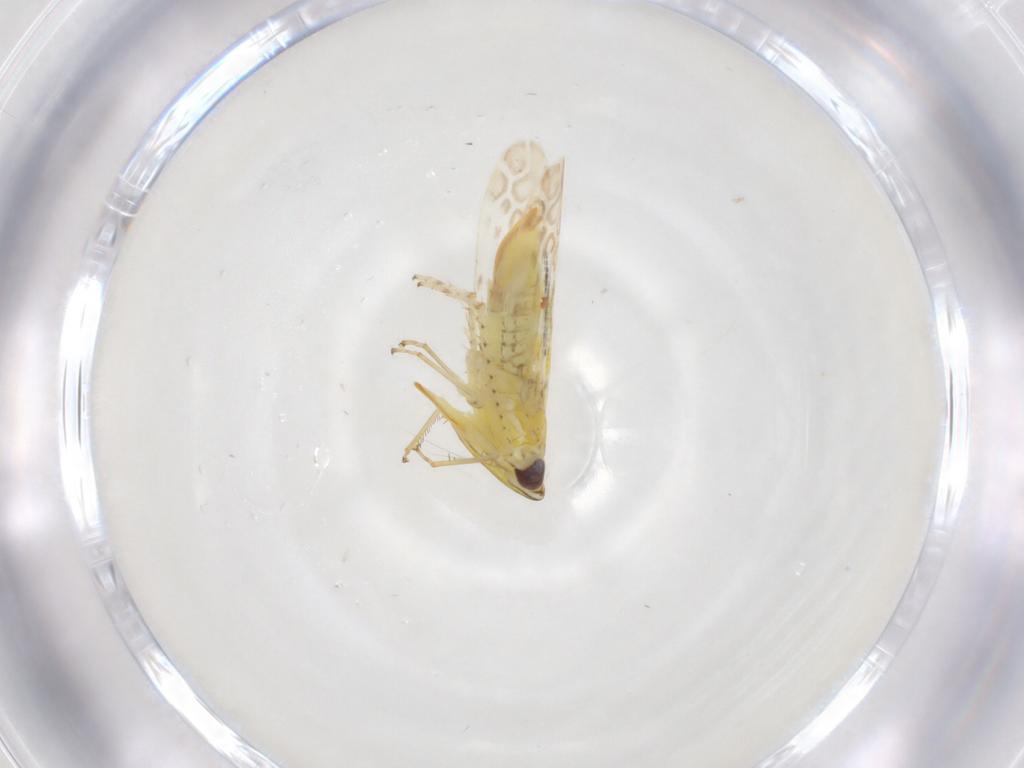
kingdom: Animalia
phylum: Arthropoda
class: Insecta
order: Hemiptera
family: Cicadellidae
